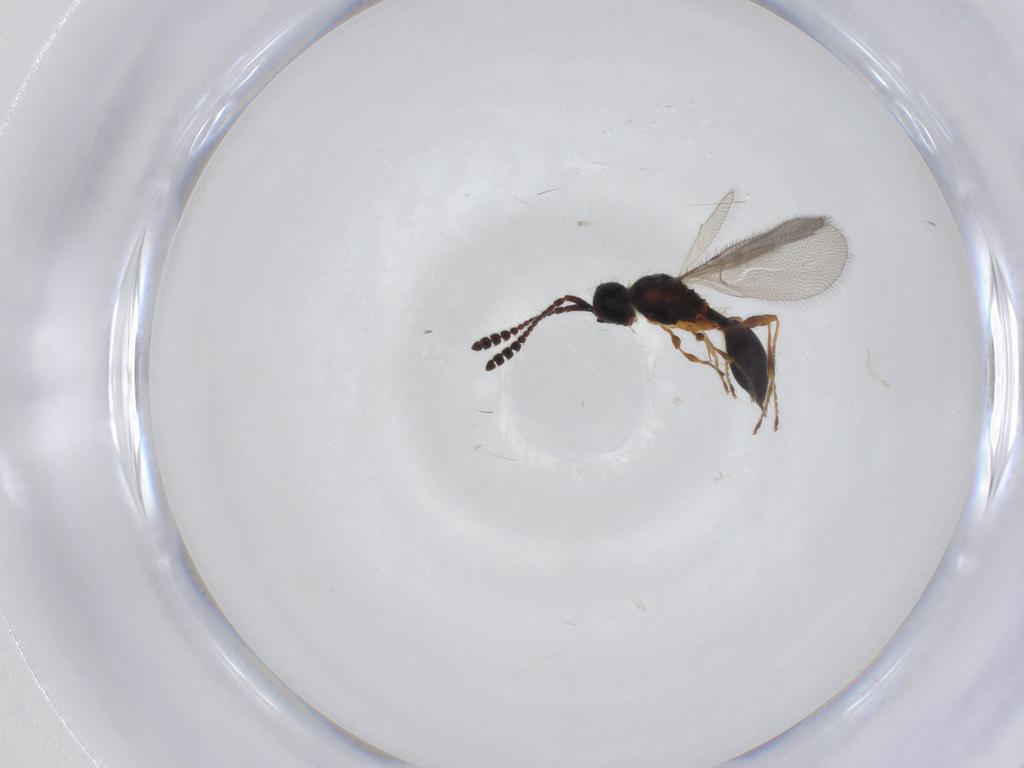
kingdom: Animalia
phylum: Arthropoda
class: Insecta
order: Hymenoptera
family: Diapriidae
